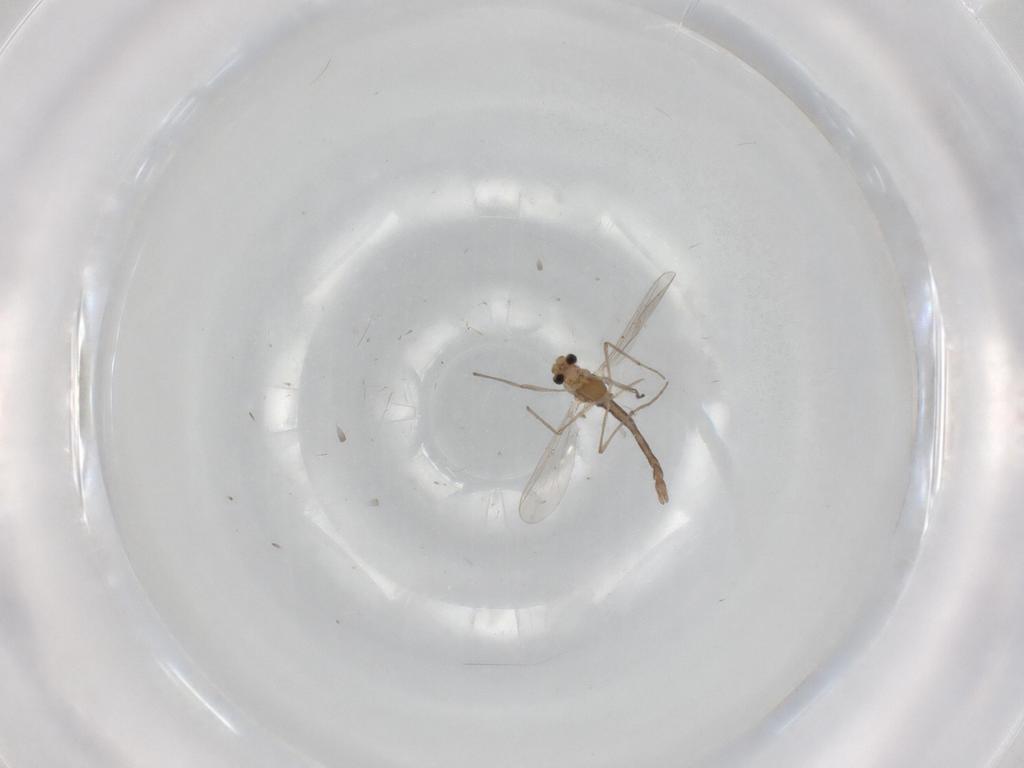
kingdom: Animalia
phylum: Arthropoda
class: Insecta
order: Diptera
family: Chironomidae
